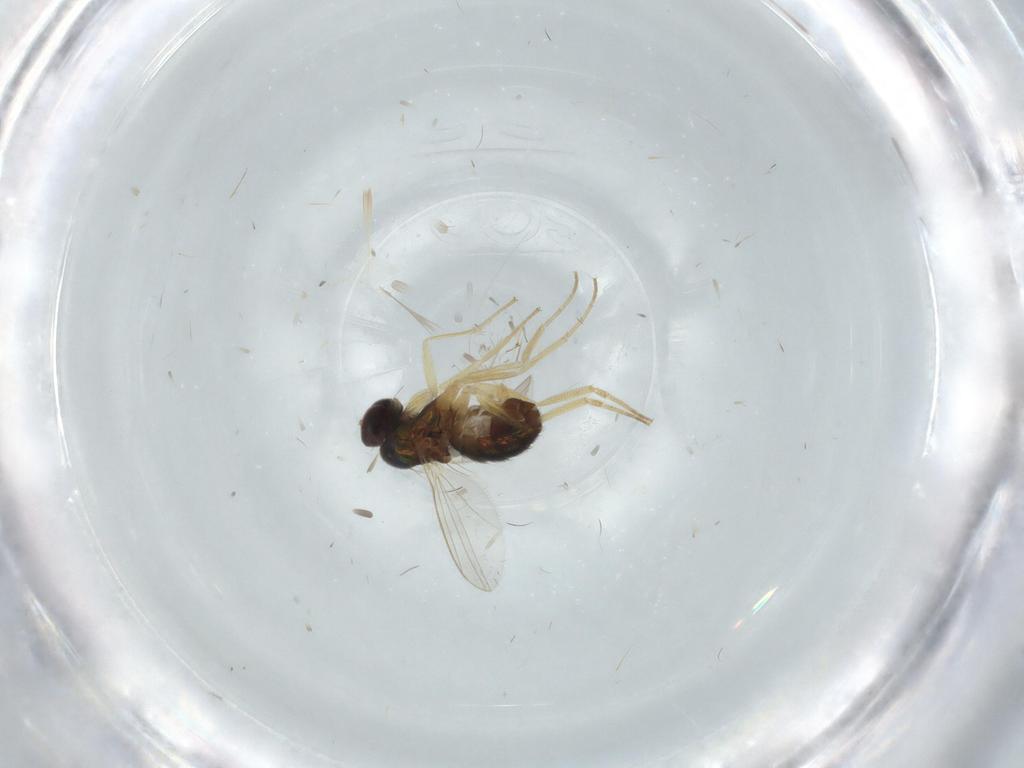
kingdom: Animalia
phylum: Arthropoda
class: Insecta
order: Diptera
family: Dolichopodidae
